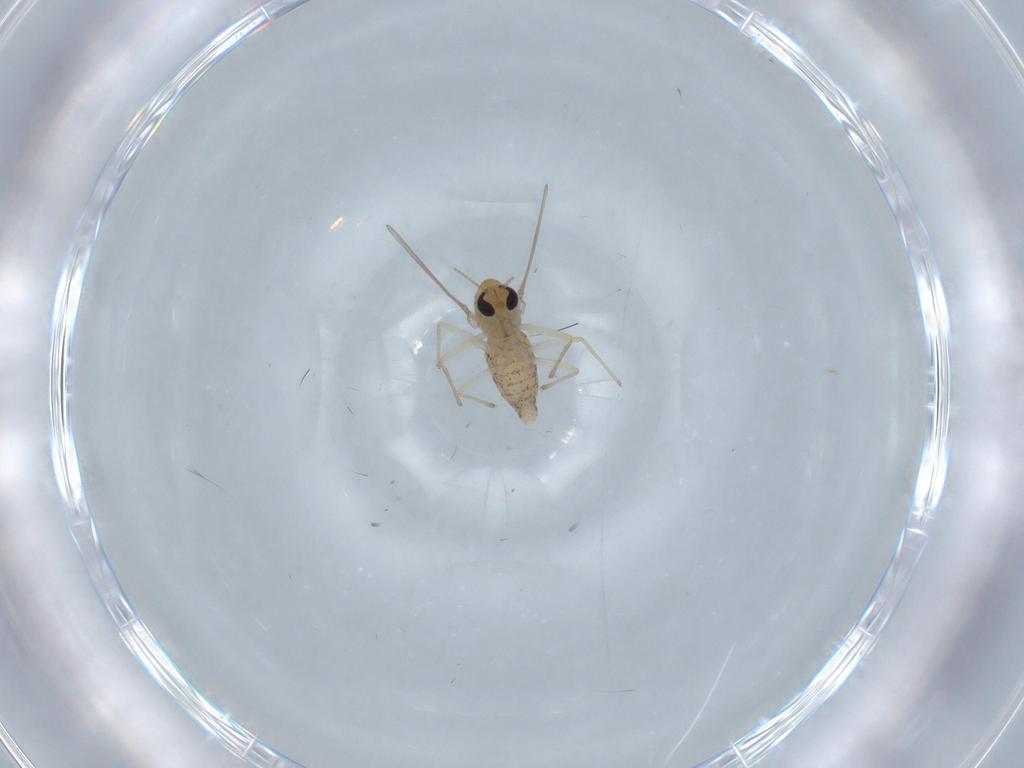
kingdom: Animalia
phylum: Arthropoda
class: Insecta
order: Diptera
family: Chironomidae
